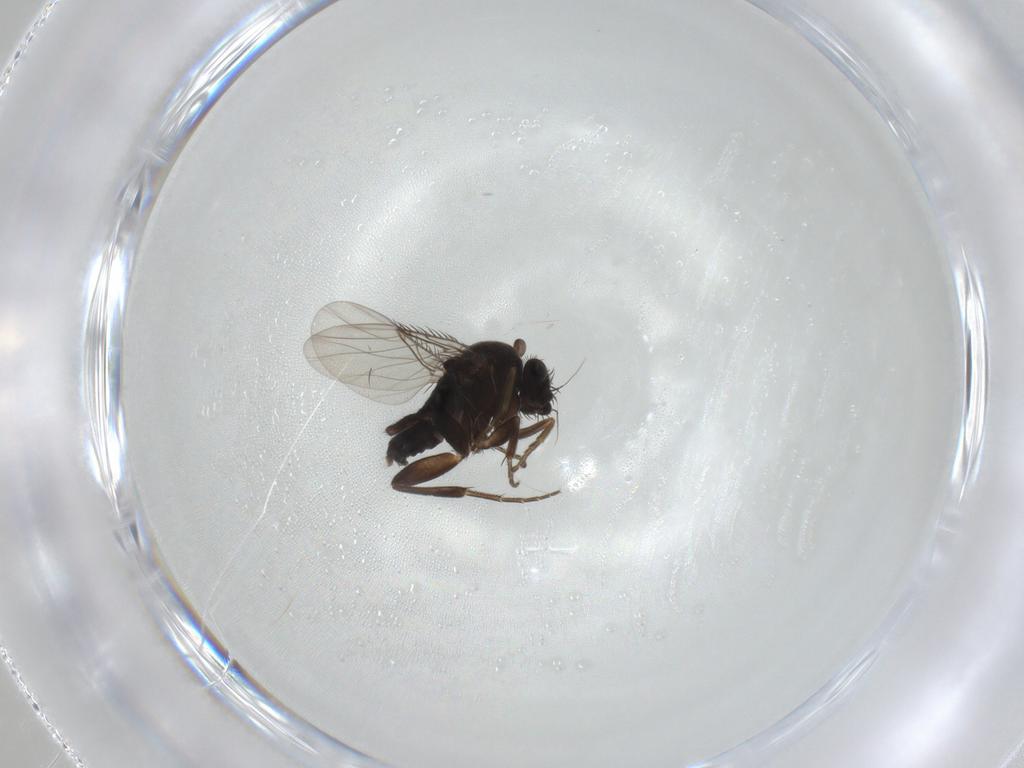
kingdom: Animalia
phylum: Arthropoda
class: Insecta
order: Diptera
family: Phoridae
